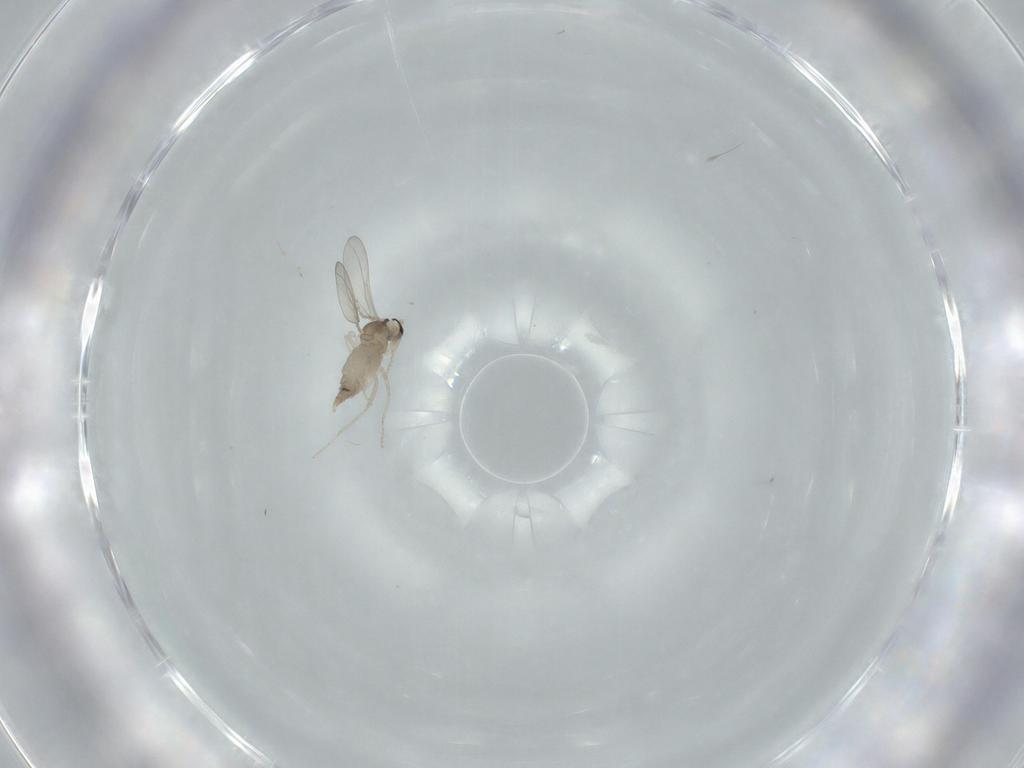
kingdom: Animalia
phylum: Arthropoda
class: Insecta
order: Diptera
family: Cecidomyiidae
